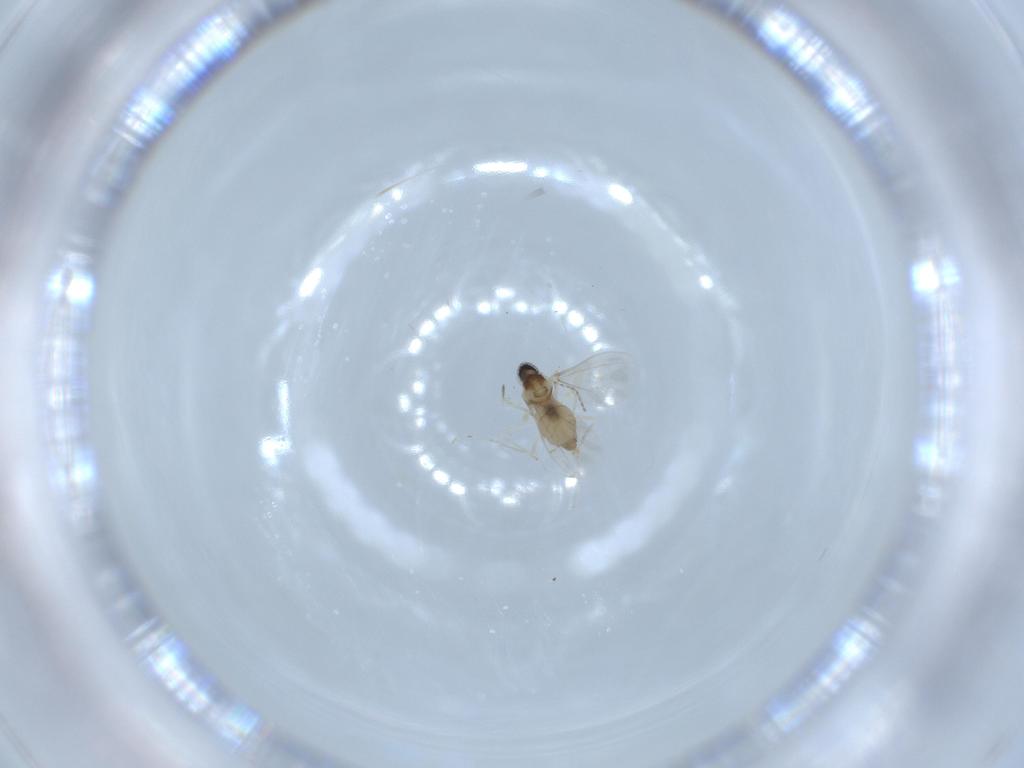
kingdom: Animalia
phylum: Arthropoda
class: Insecta
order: Diptera
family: Cecidomyiidae
